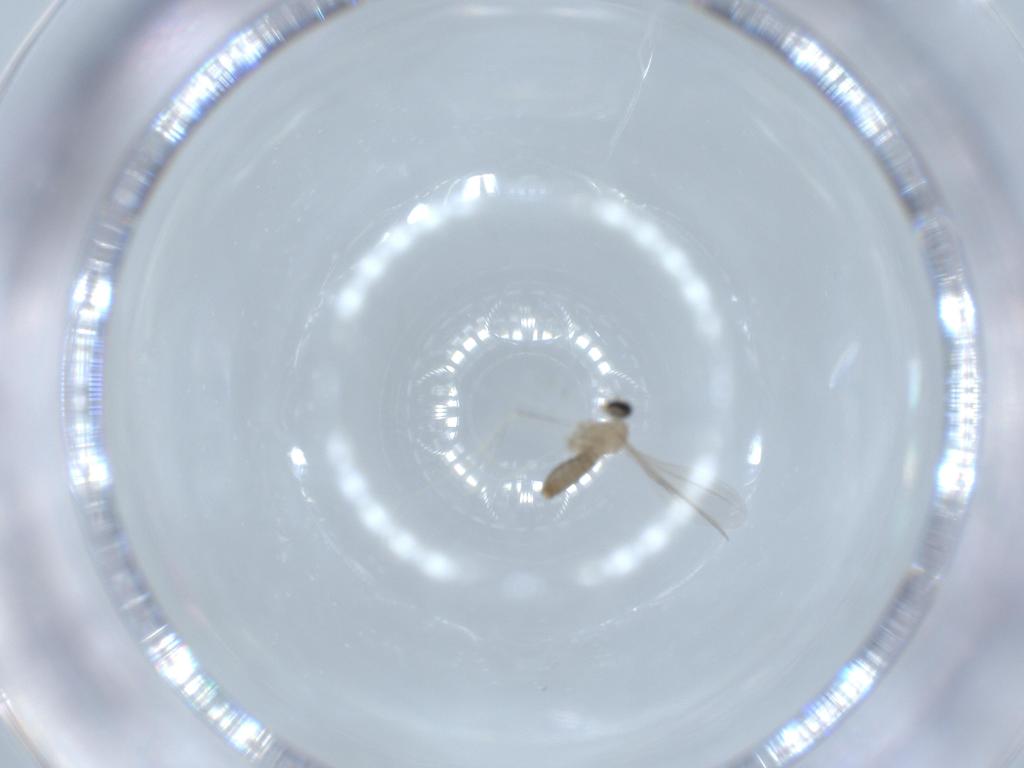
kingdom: Animalia
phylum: Arthropoda
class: Insecta
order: Diptera
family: Cecidomyiidae
